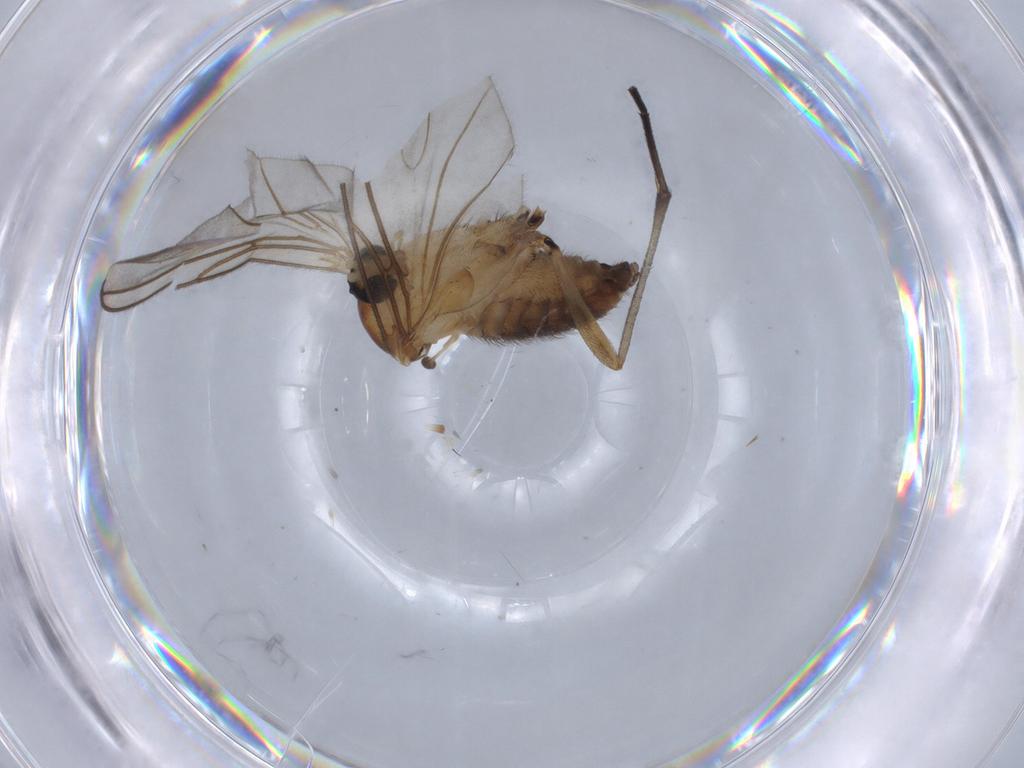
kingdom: Animalia
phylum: Arthropoda
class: Insecta
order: Diptera
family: Sciaridae
